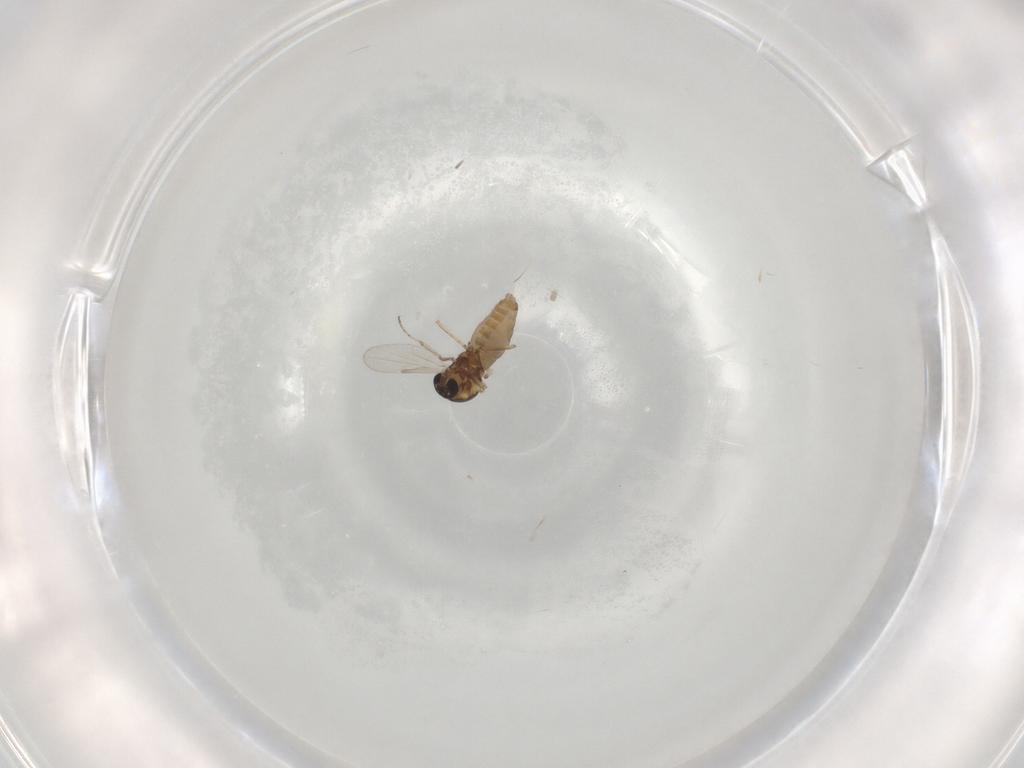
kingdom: Animalia
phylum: Arthropoda
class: Insecta
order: Diptera
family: Ceratopogonidae
